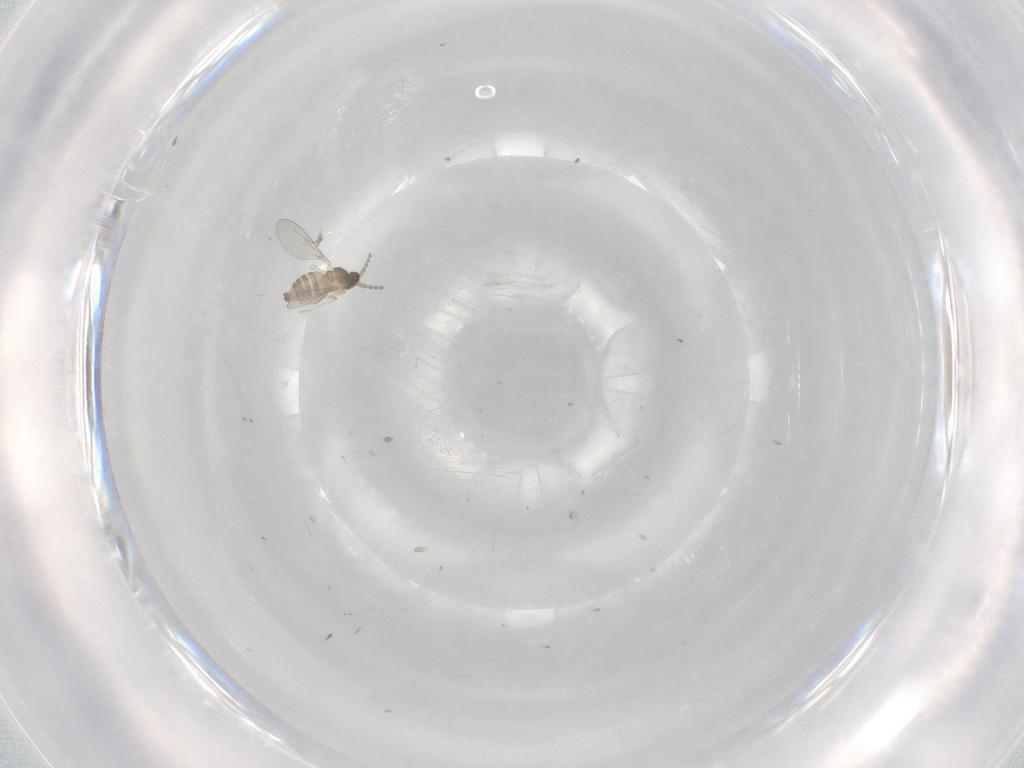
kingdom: Animalia
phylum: Arthropoda
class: Insecta
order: Diptera
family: Cecidomyiidae
